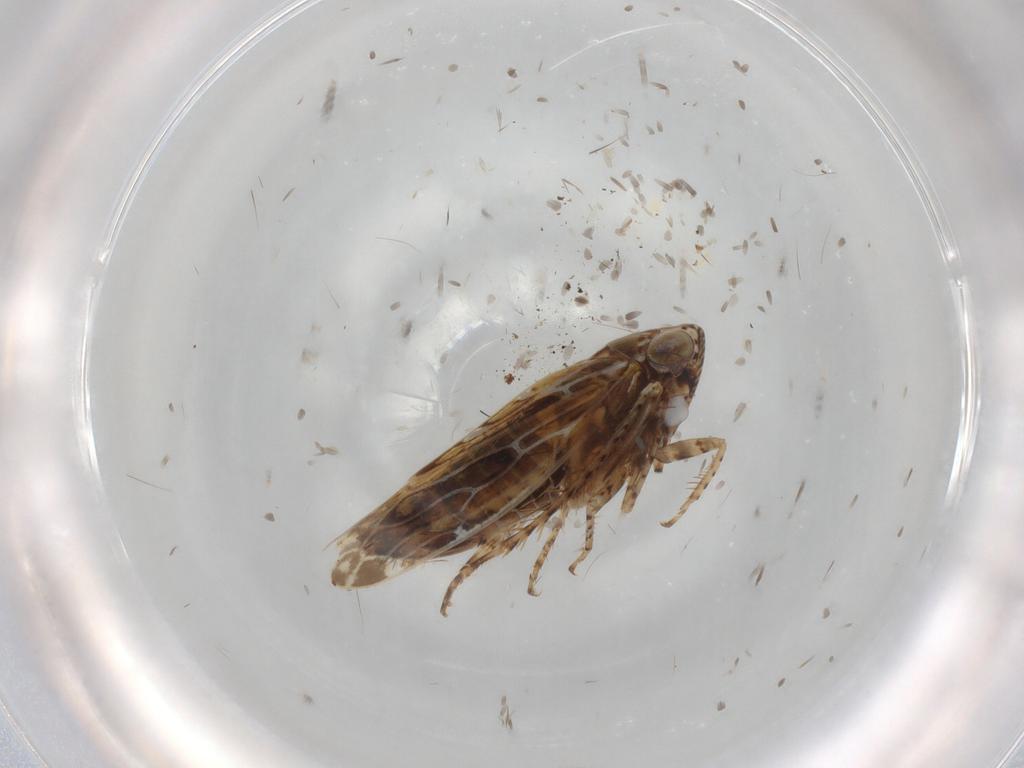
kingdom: Animalia
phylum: Arthropoda
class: Insecta
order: Hemiptera
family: Cicadellidae
